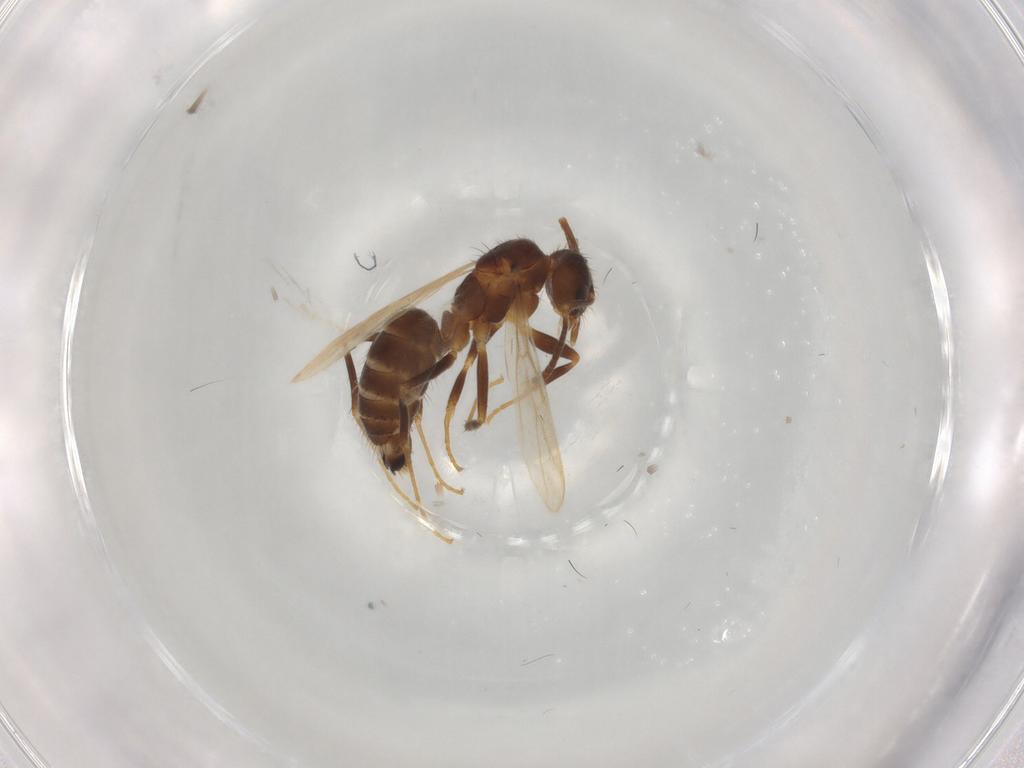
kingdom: Animalia
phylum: Arthropoda
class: Insecta
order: Hymenoptera
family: Formicidae
